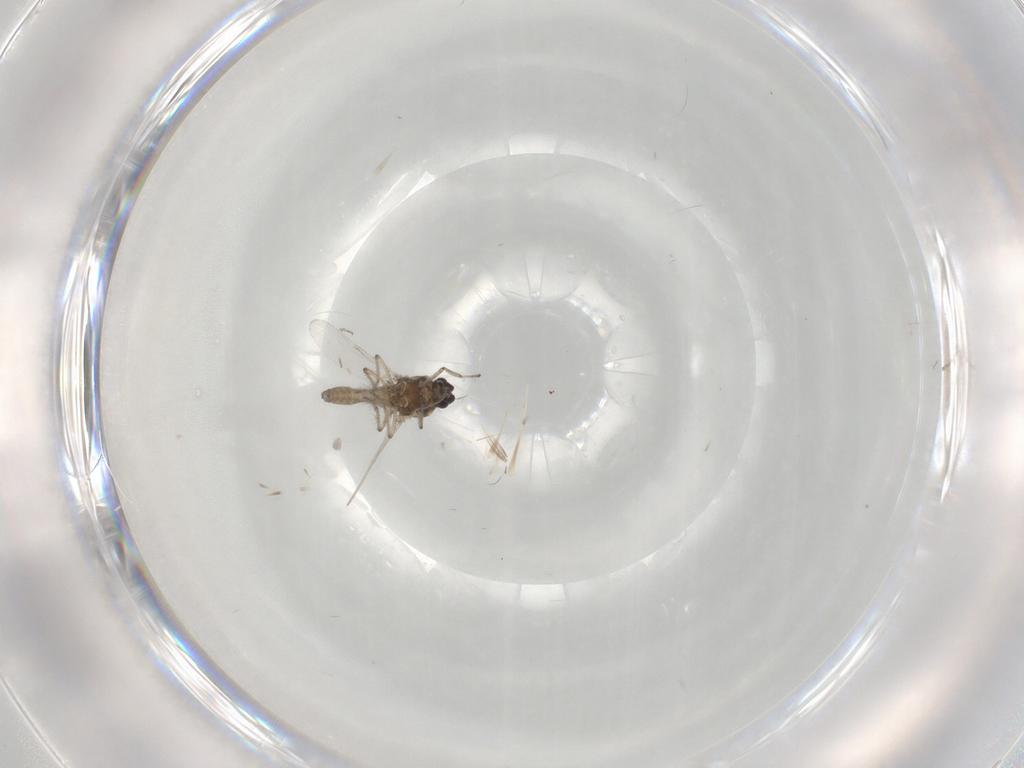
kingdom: Animalia
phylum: Arthropoda
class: Insecta
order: Diptera
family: Ceratopogonidae
